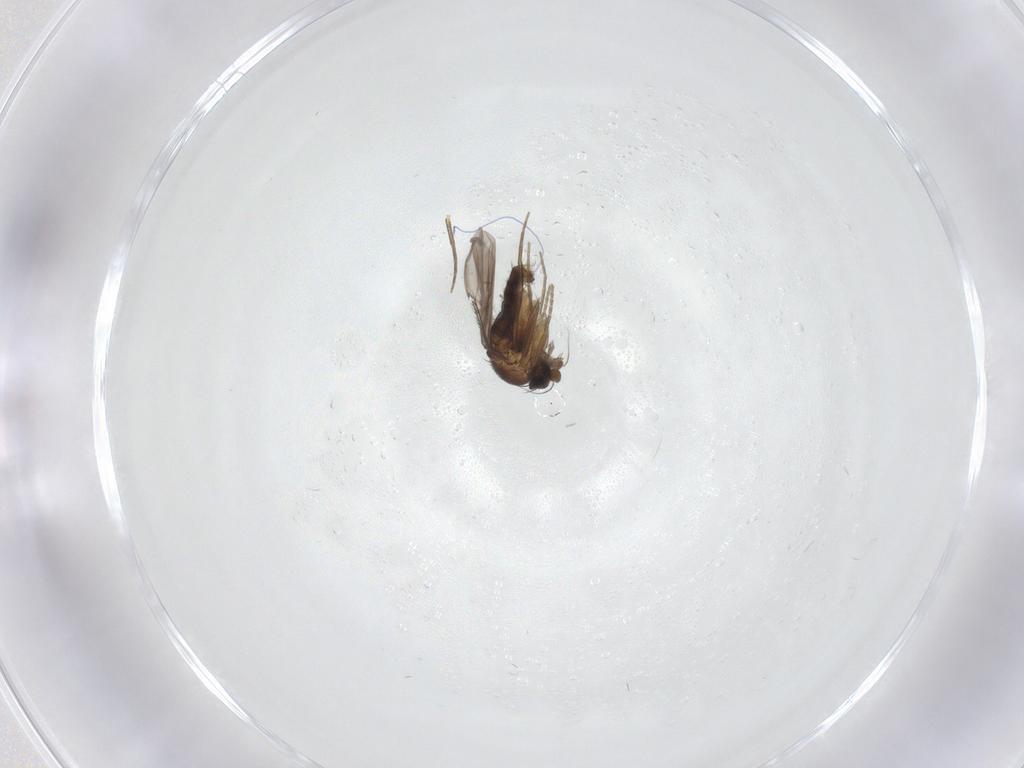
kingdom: Animalia
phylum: Arthropoda
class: Insecta
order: Diptera
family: Phoridae
